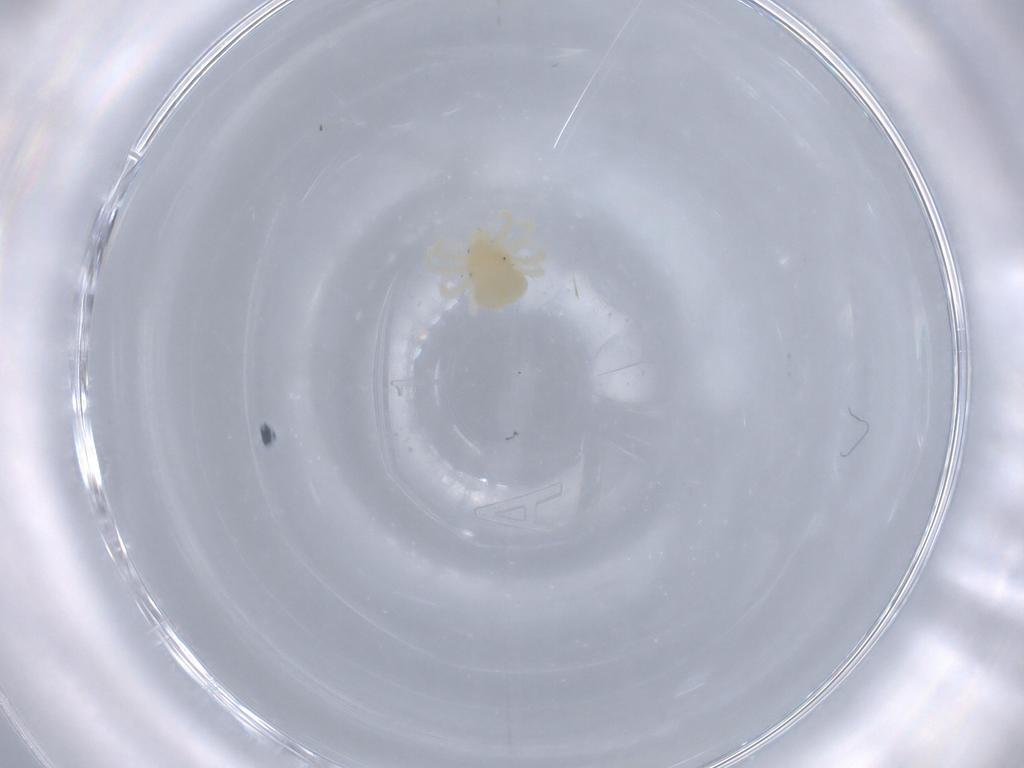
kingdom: Animalia
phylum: Arthropoda
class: Arachnida
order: Trombidiformes
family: Anystidae
